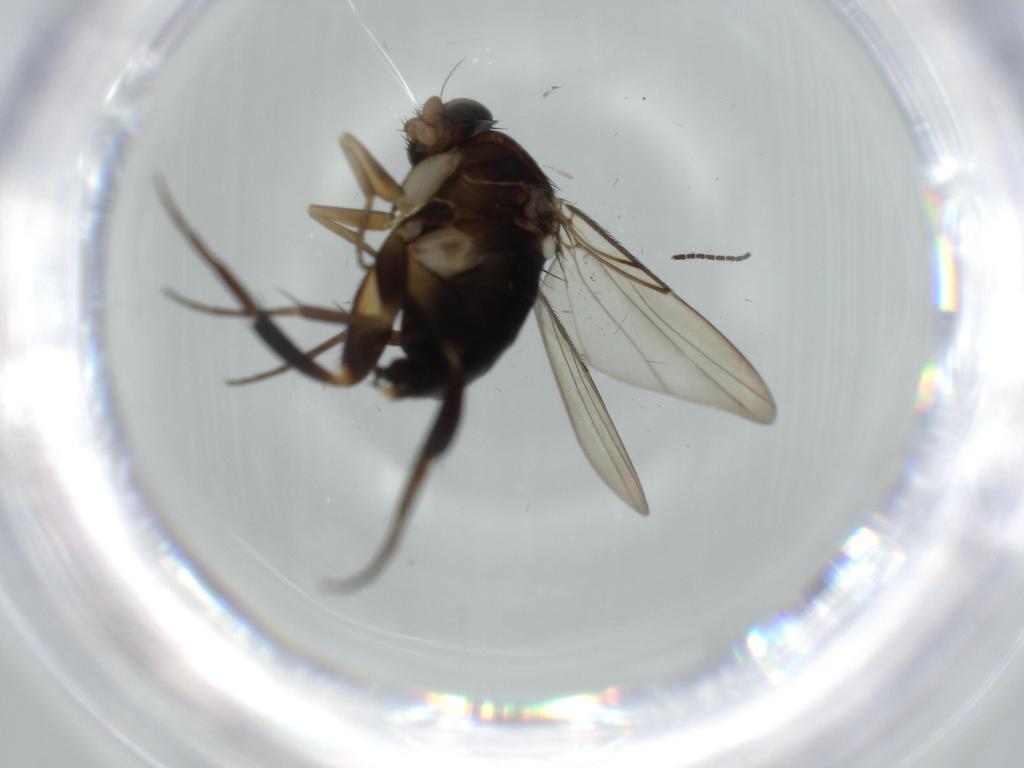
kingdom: Animalia
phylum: Arthropoda
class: Insecta
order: Diptera
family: Phoridae
